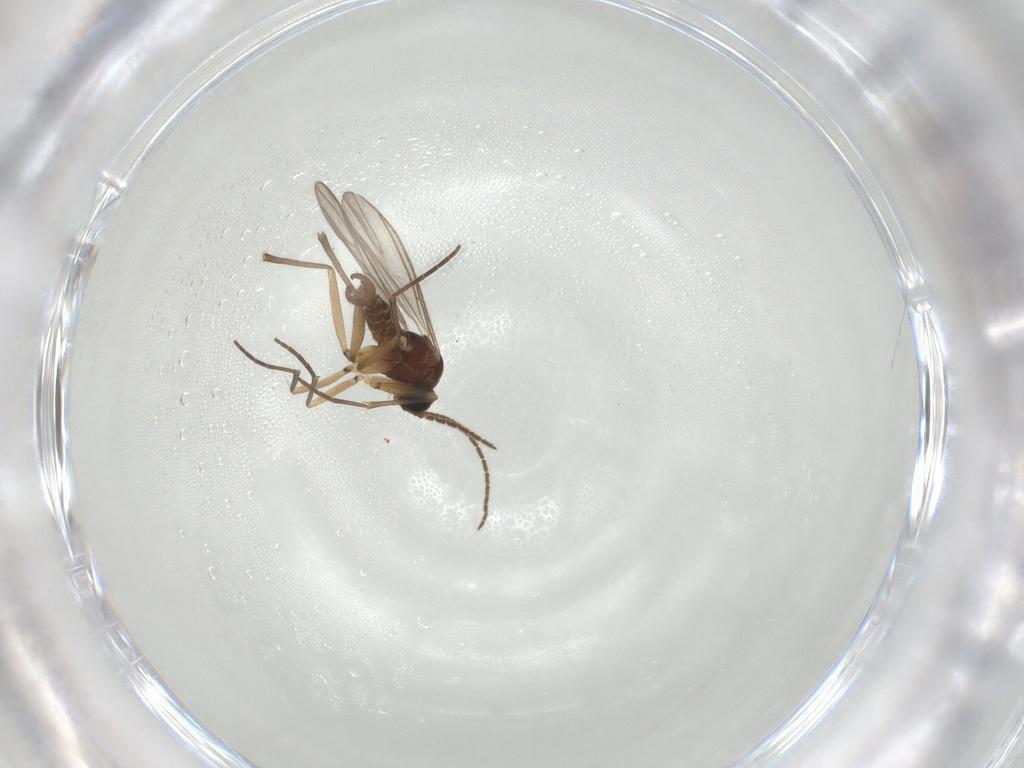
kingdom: Animalia
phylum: Arthropoda
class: Insecta
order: Diptera
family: Sciaridae
